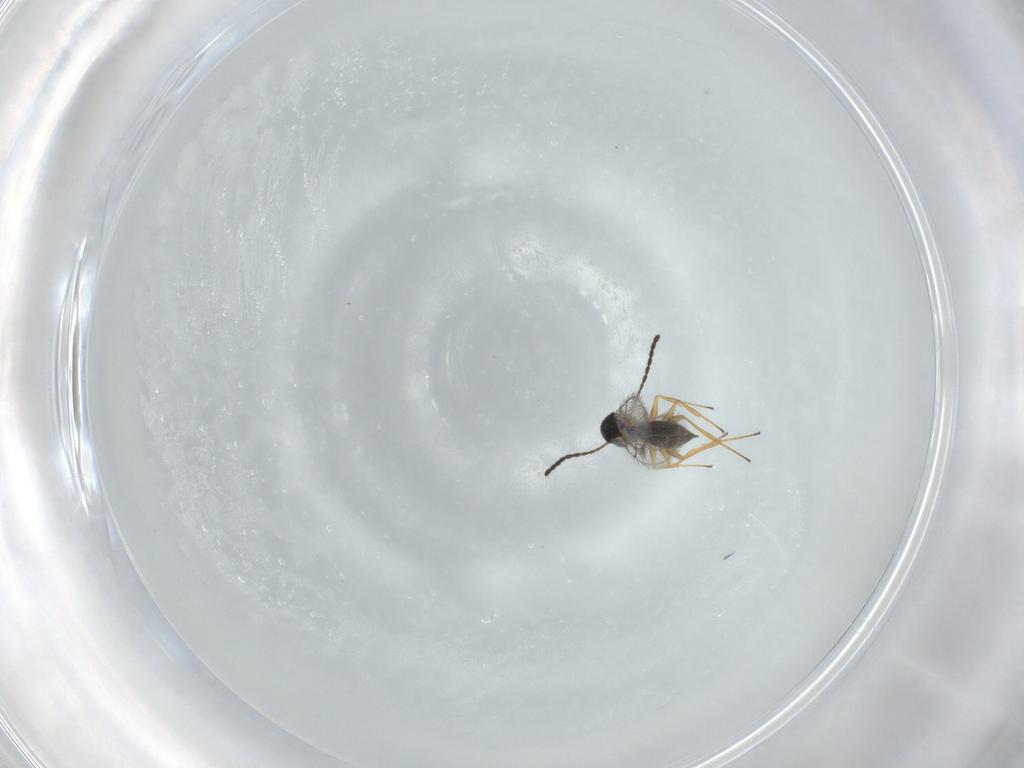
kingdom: Animalia
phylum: Arthropoda
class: Insecta
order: Hymenoptera
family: Figitidae
